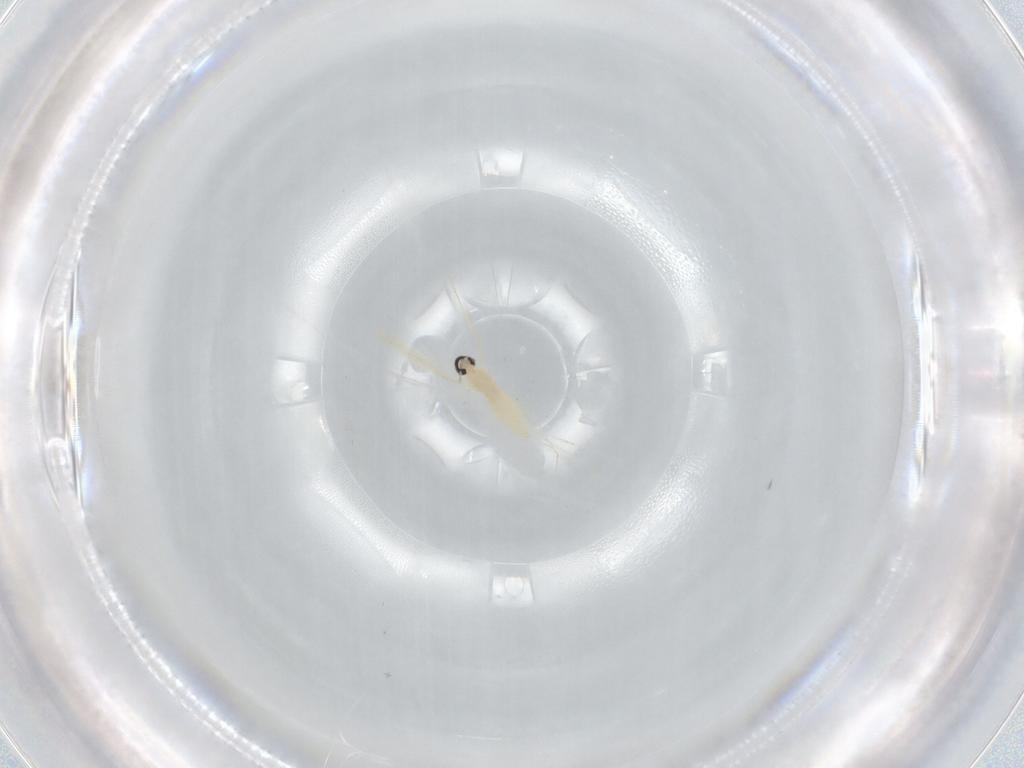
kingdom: Animalia
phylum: Arthropoda
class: Insecta
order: Diptera
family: Cecidomyiidae
